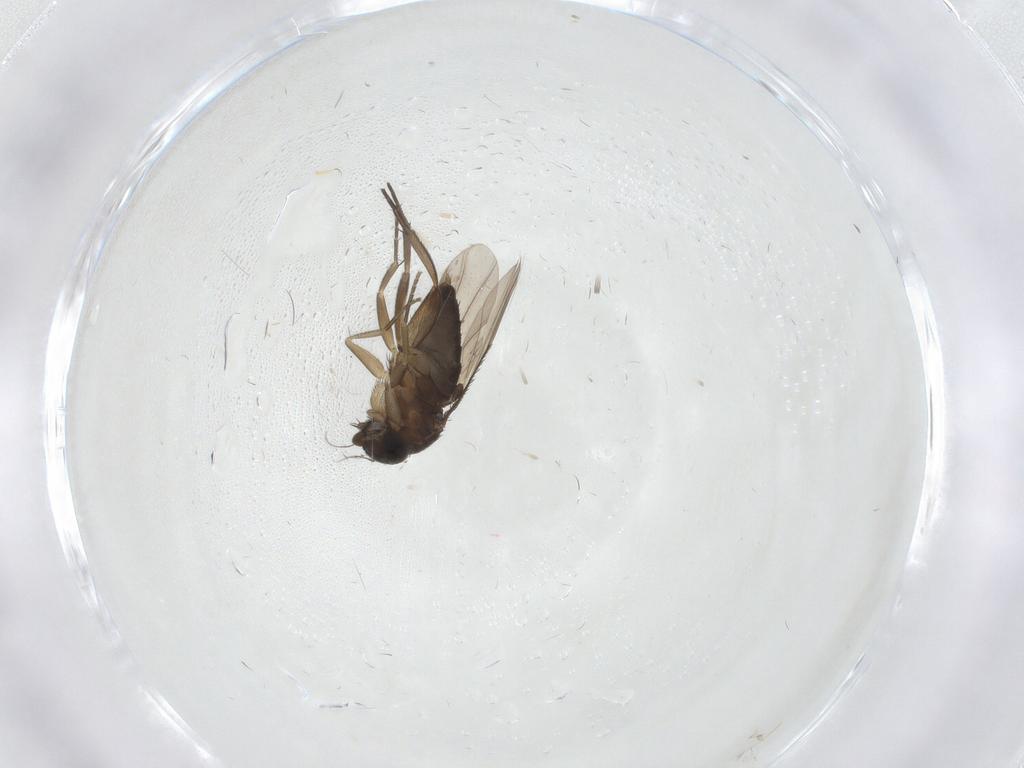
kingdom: Animalia
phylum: Arthropoda
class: Insecta
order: Diptera
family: Phoridae
